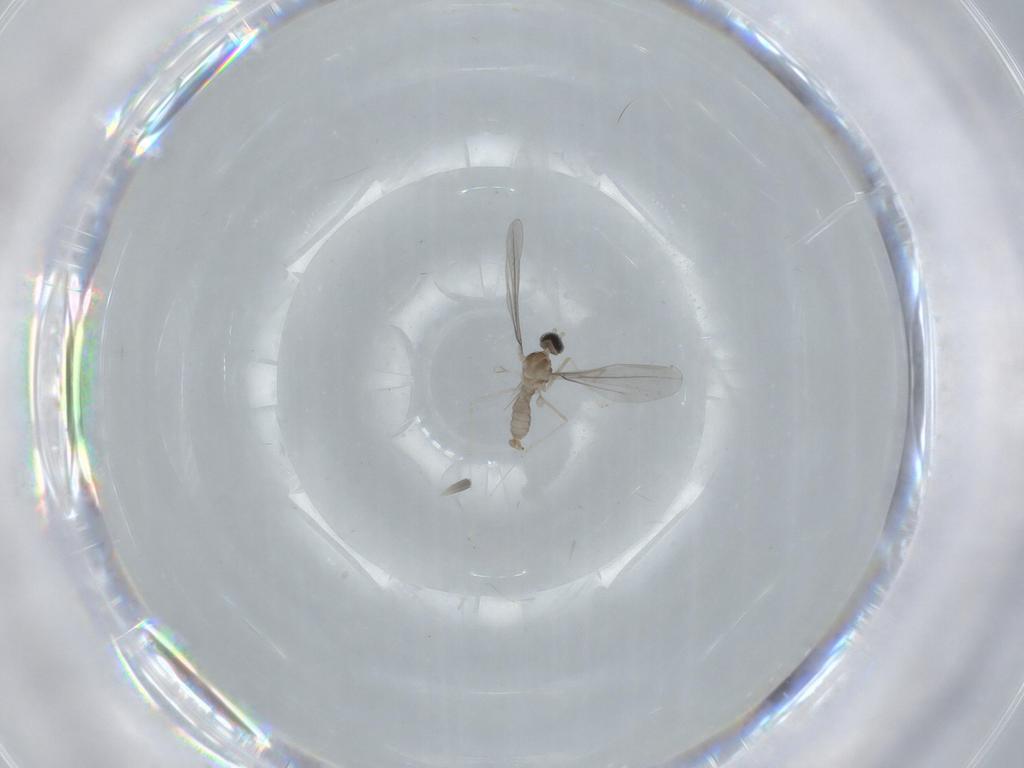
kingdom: Animalia
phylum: Arthropoda
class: Insecta
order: Diptera
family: Cecidomyiidae
